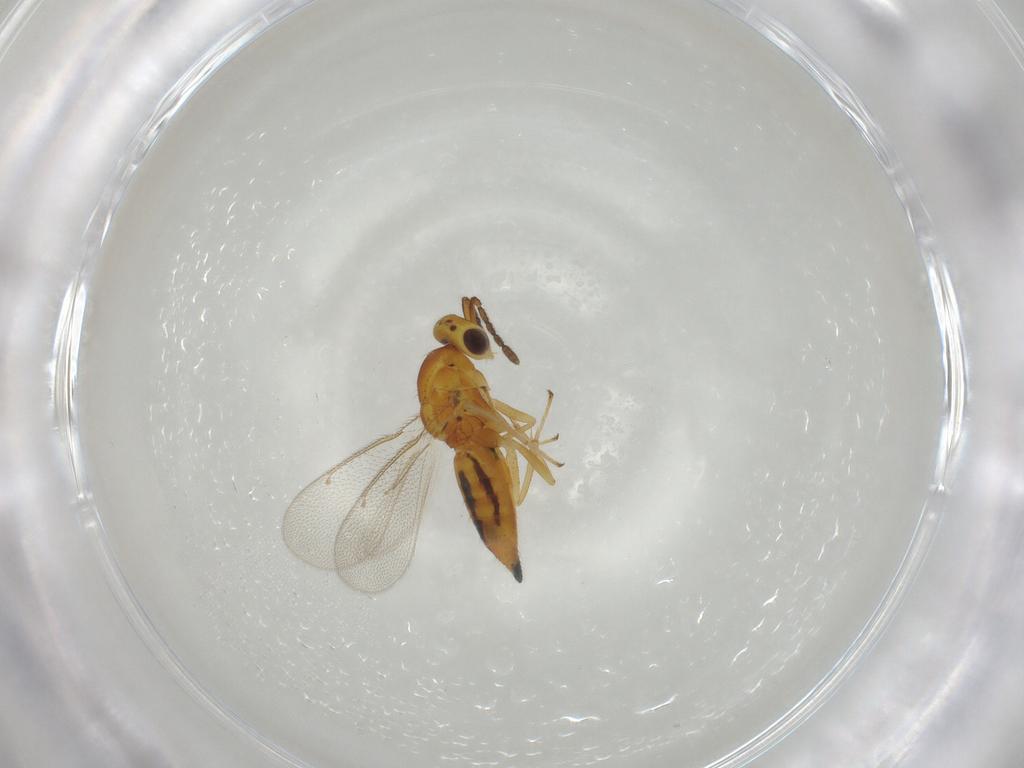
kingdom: Animalia
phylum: Arthropoda
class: Insecta
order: Hymenoptera
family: Eulophidae
